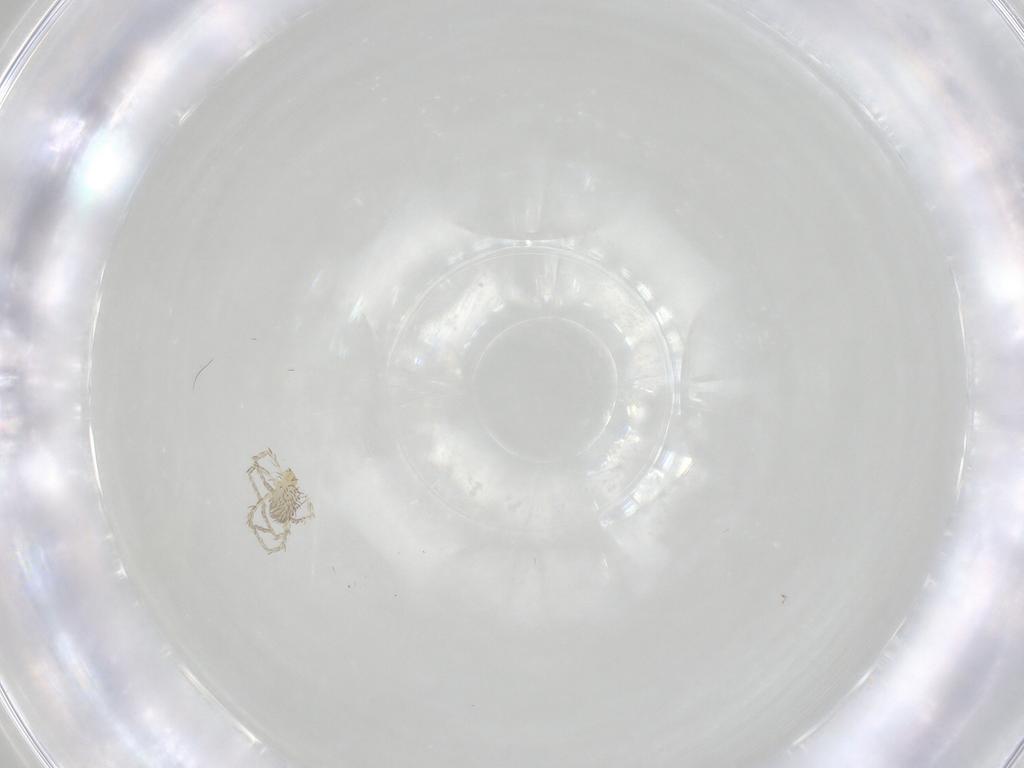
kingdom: Animalia
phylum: Arthropoda
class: Arachnida
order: Trombidiformes
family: Erythraeidae
